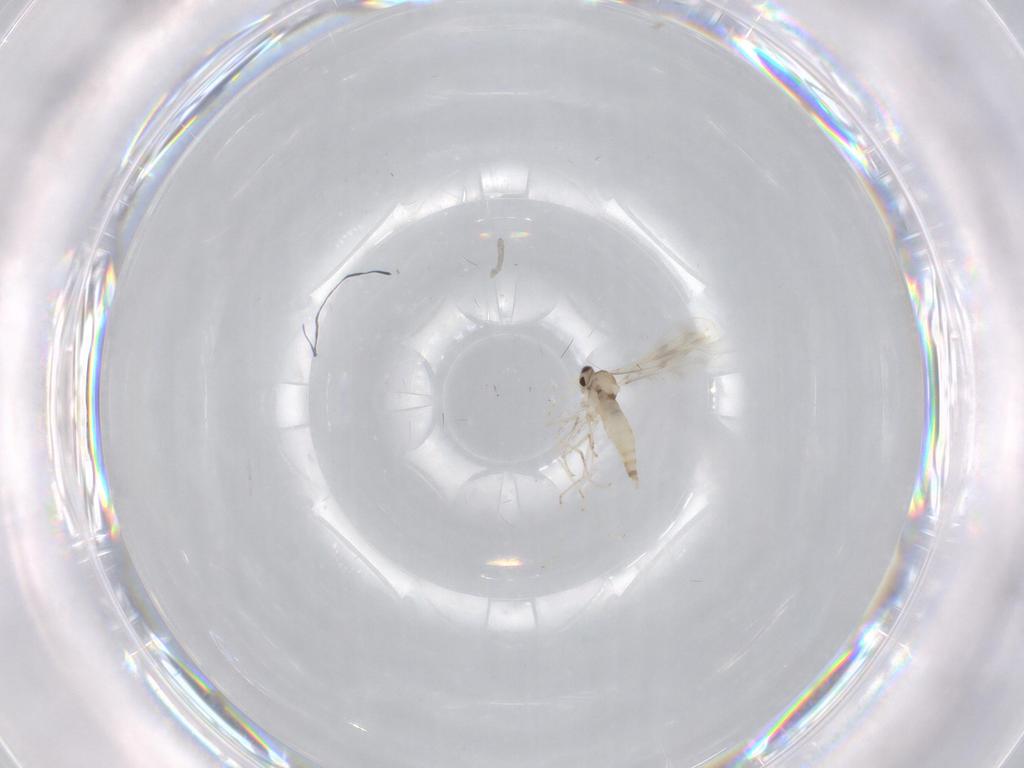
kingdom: Animalia
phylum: Arthropoda
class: Insecta
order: Diptera
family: Cecidomyiidae
